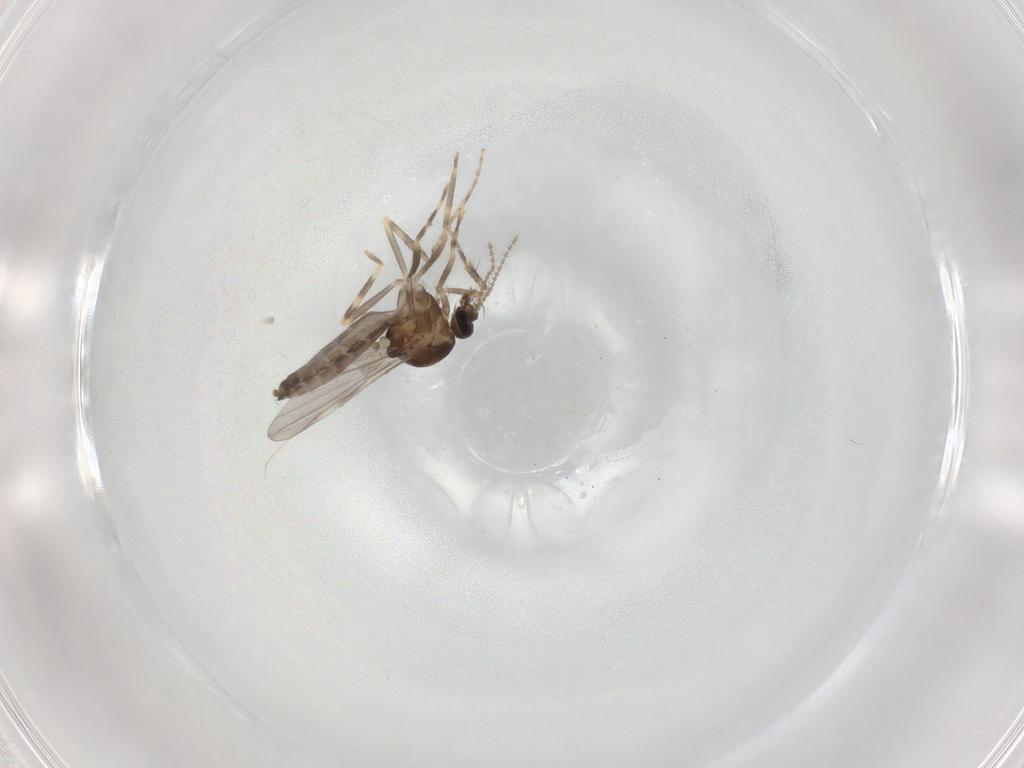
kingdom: Animalia
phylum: Arthropoda
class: Insecta
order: Diptera
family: Ceratopogonidae
